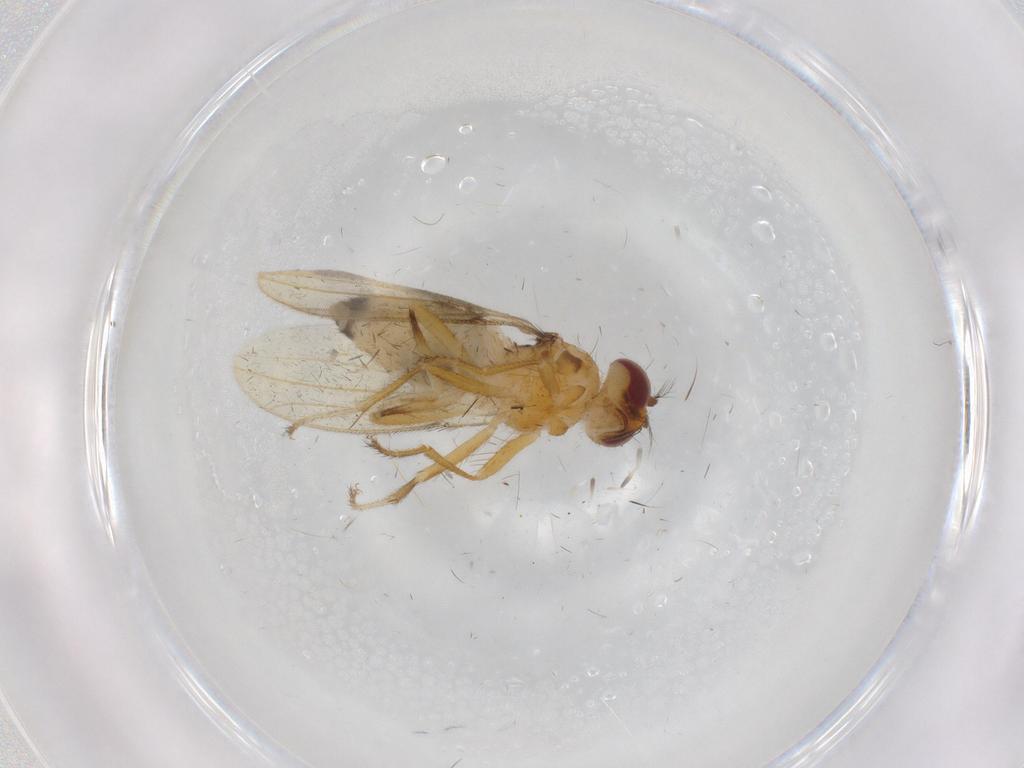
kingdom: Animalia
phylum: Arthropoda
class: Insecta
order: Diptera
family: Periscelididae
